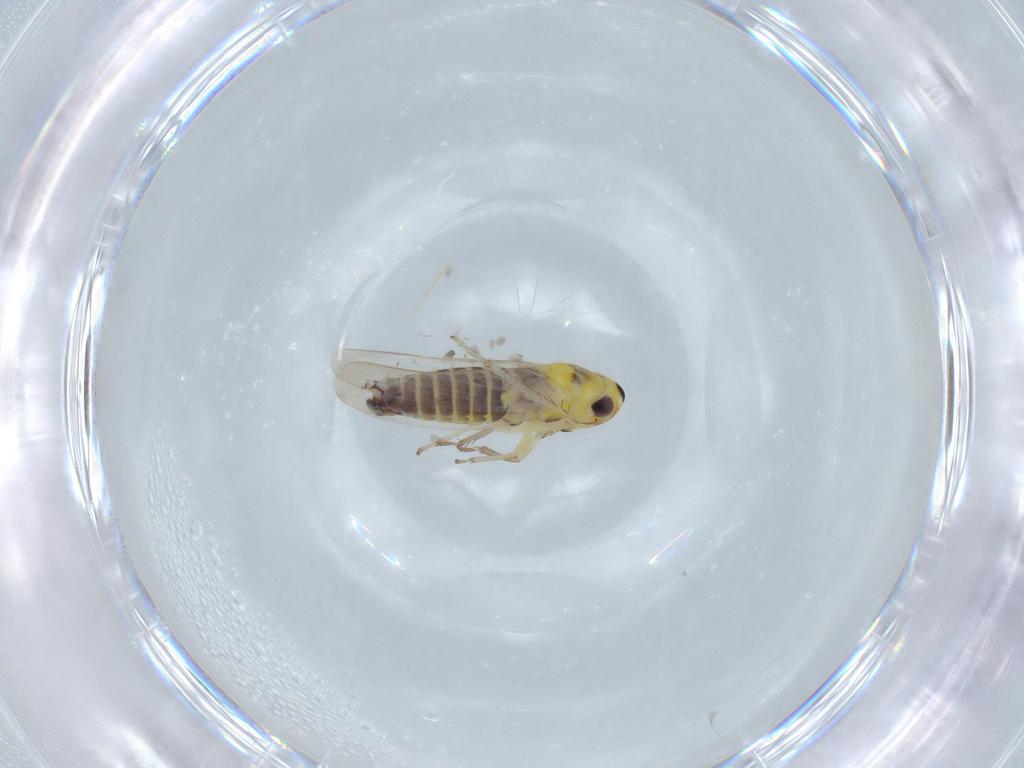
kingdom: Animalia
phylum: Arthropoda
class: Insecta
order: Hemiptera
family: Cicadellidae
